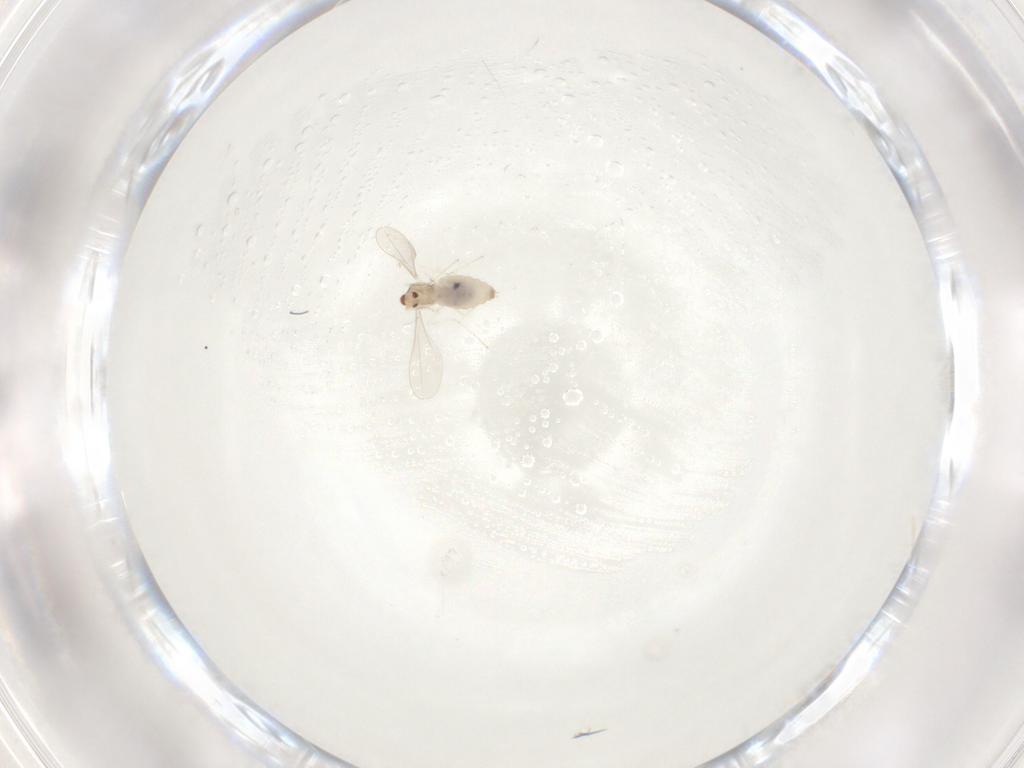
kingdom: Animalia
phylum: Arthropoda
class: Insecta
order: Diptera
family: Cecidomyiidae
